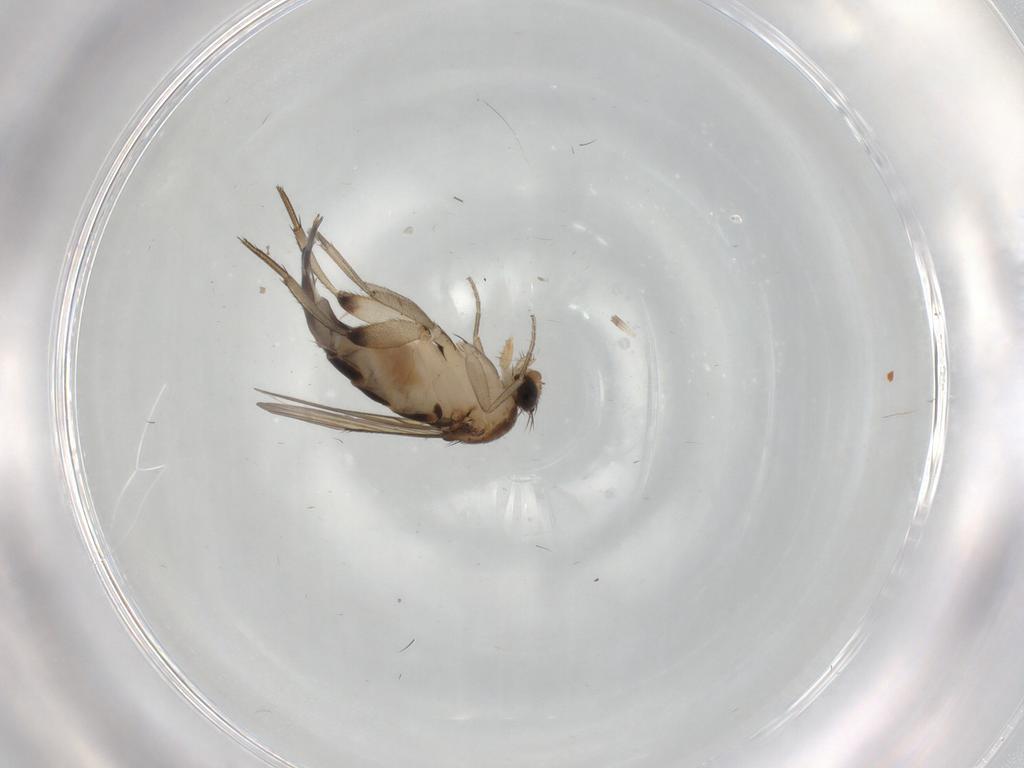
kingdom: Animalia
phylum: Arthropoda
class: Insecta
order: Diptera
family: Phoridae
